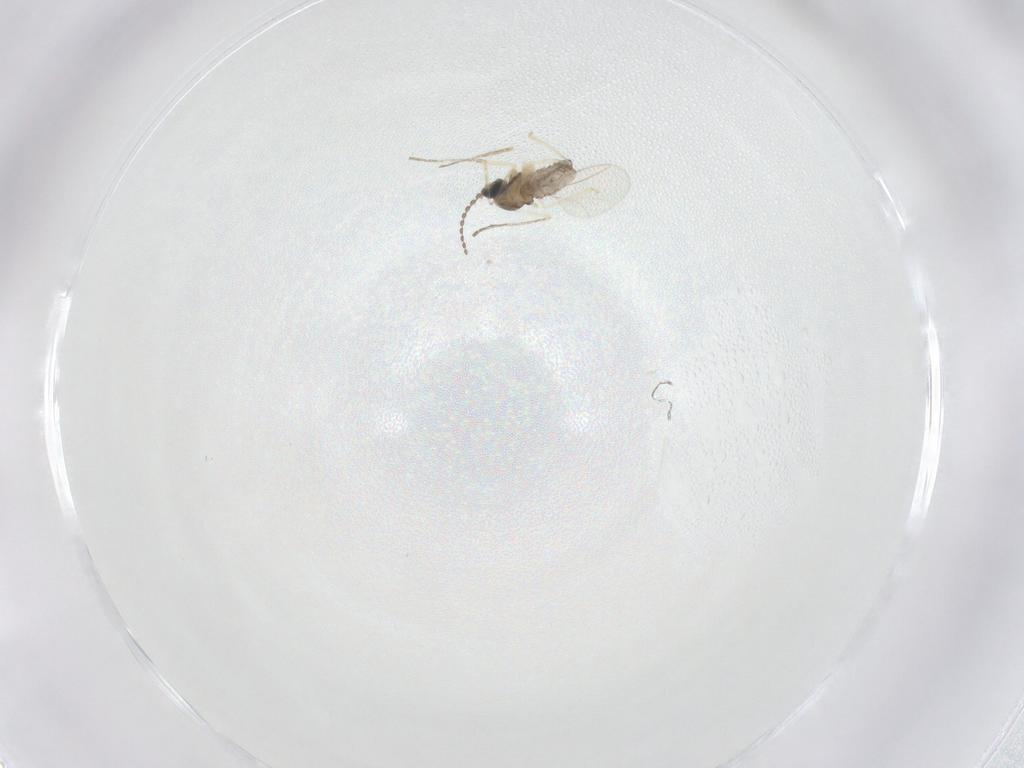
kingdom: Animalia
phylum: Arthropoda
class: Insecta
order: Diptera
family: Cecidomyiidae
